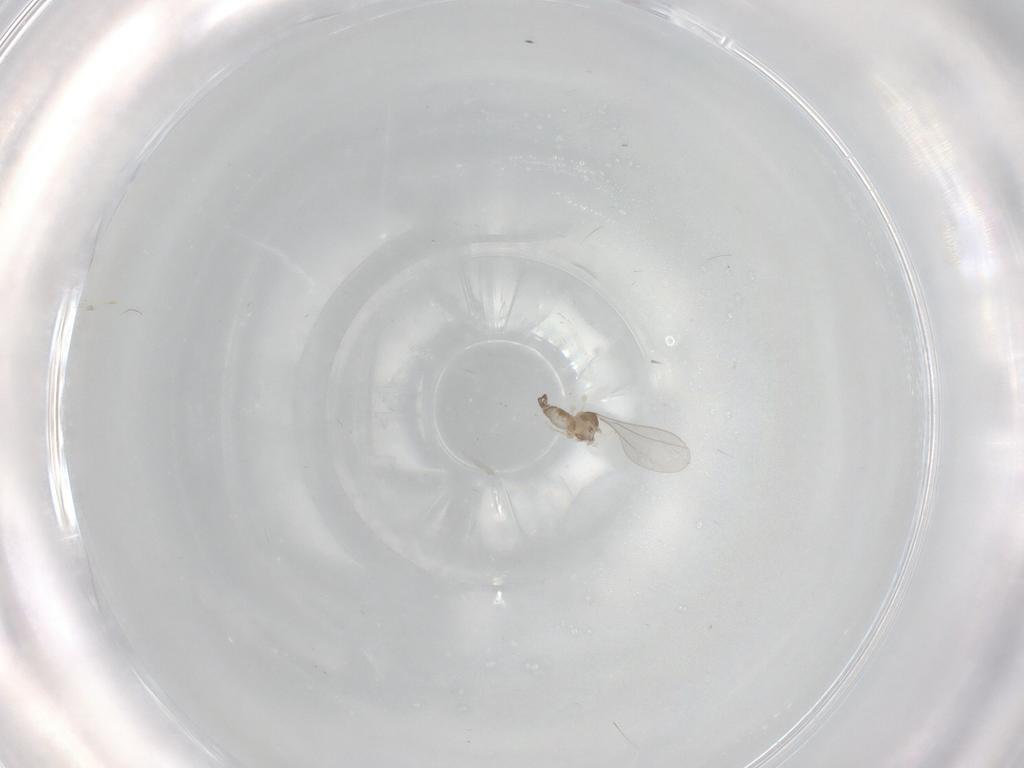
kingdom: Animalia
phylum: Arthropoda
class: Insecta
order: Diptera
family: Cecidomyiidae
